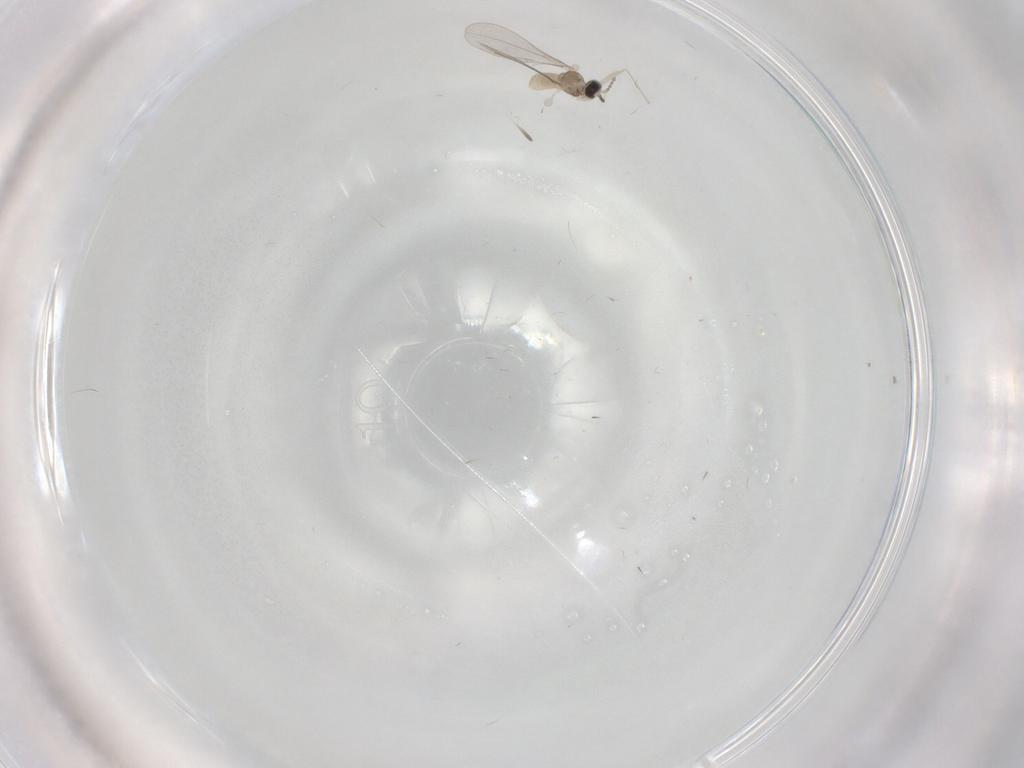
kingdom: Animalia
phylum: Arthropoda
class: Insecta
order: Diptera
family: Cecidomyiidae
